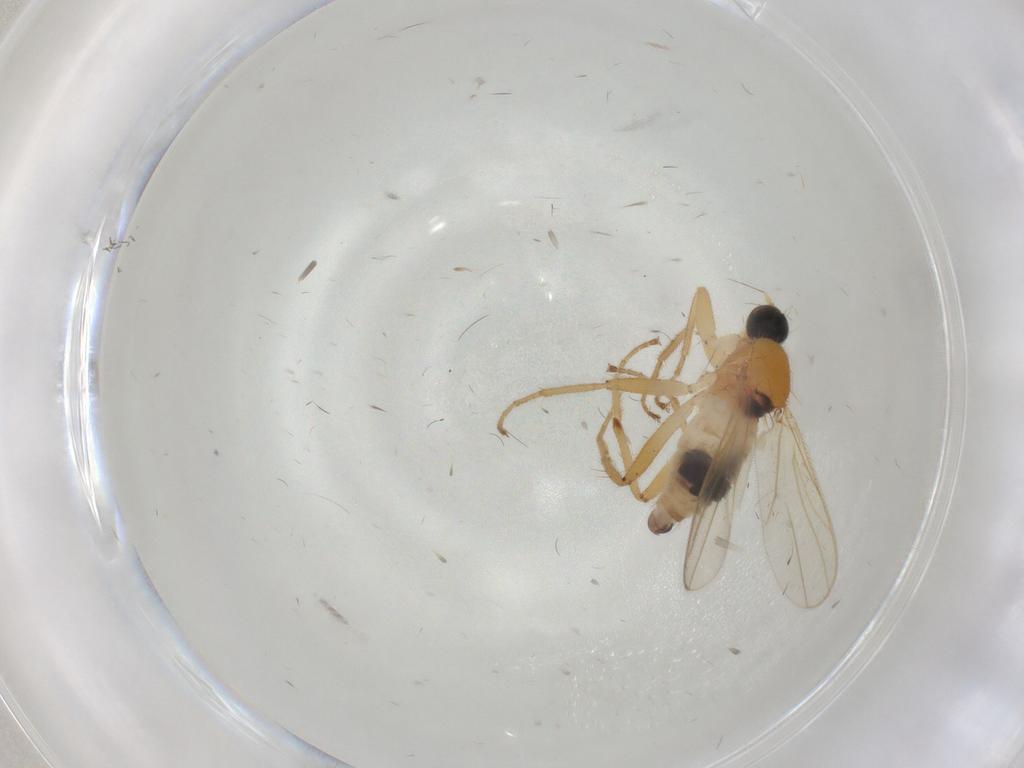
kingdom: Animalia
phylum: Arthropoda
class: Insecta
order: Diptera
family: Hybotidae
